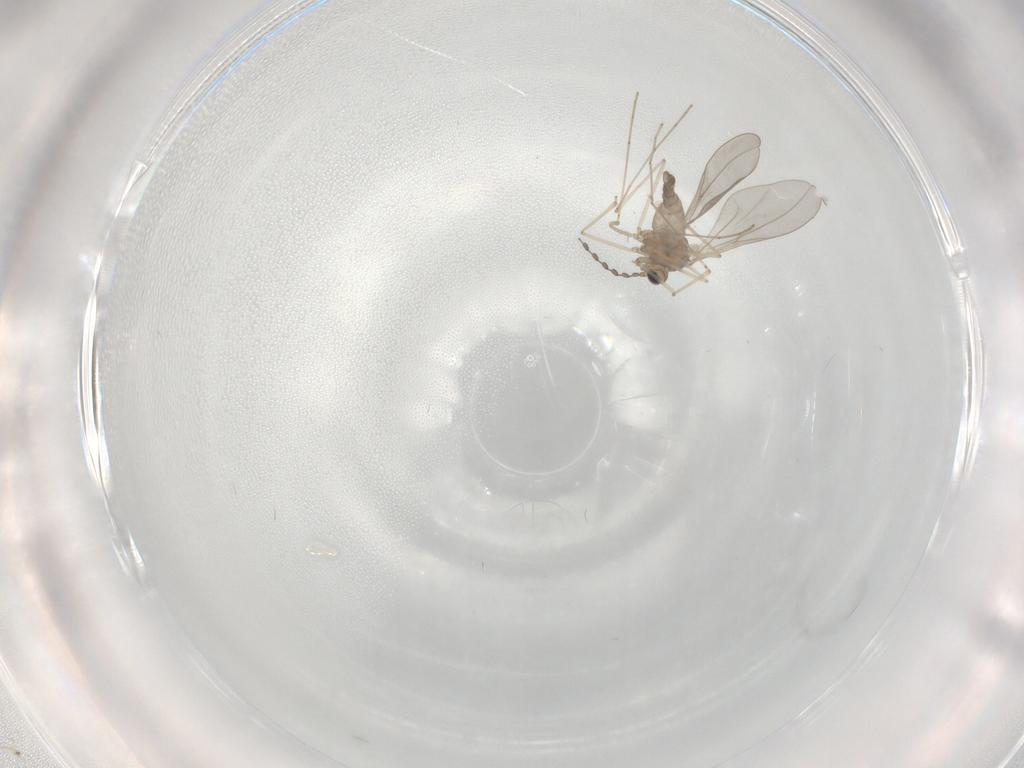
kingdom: Animalia
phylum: Arthropoda
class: Insecta
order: Diptera
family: Cecidomyiidae
